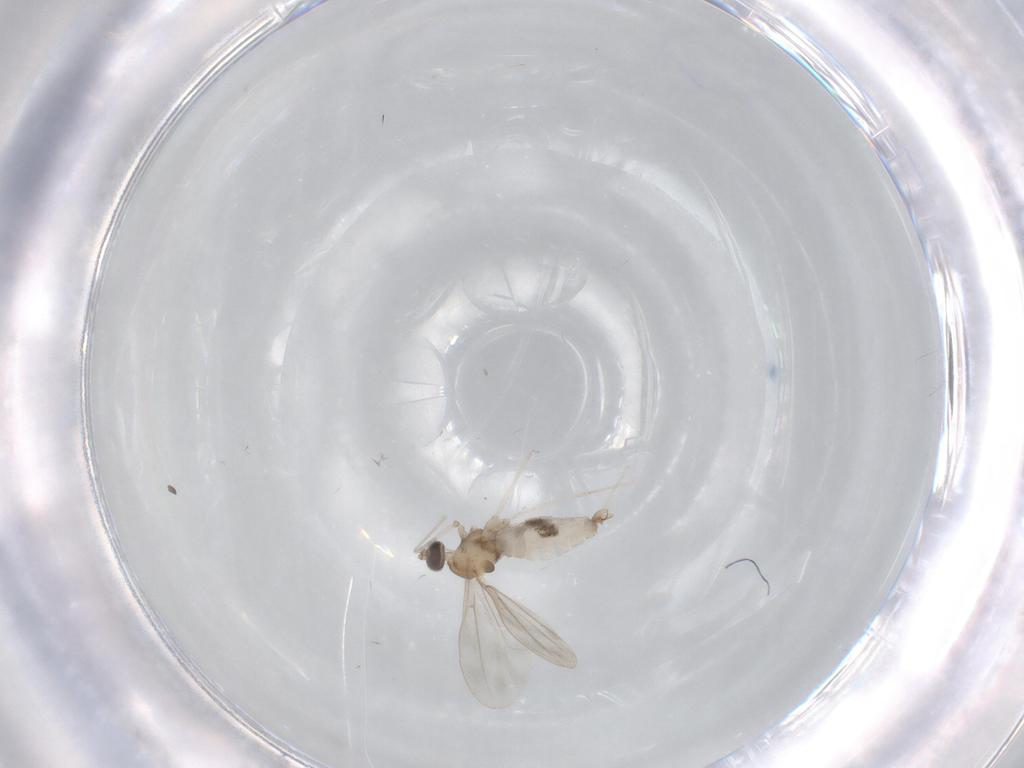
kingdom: Animalia
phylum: Arthropoda
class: Insecta
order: Diptera
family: Cecidomyiidae
